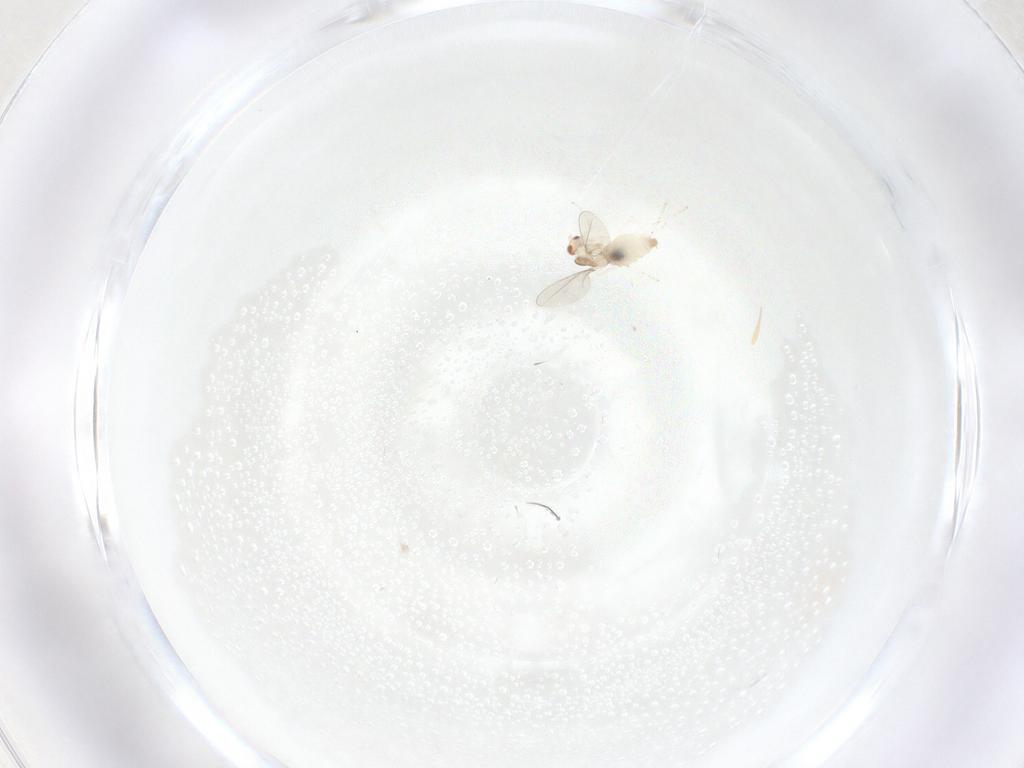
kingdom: Animalia
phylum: Arthropoda
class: Insecta
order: Diptera
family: Cecidomyiidae
